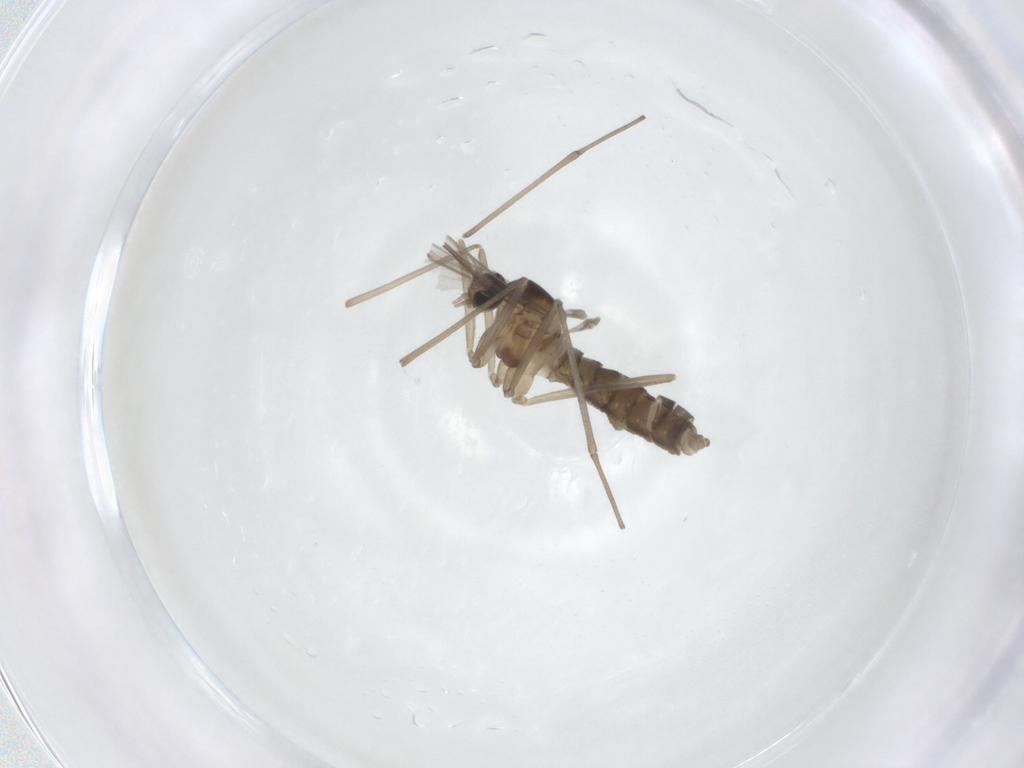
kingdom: Animalia
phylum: Arthropoda
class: Insecta
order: Diptera
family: Cecidomyiidae
